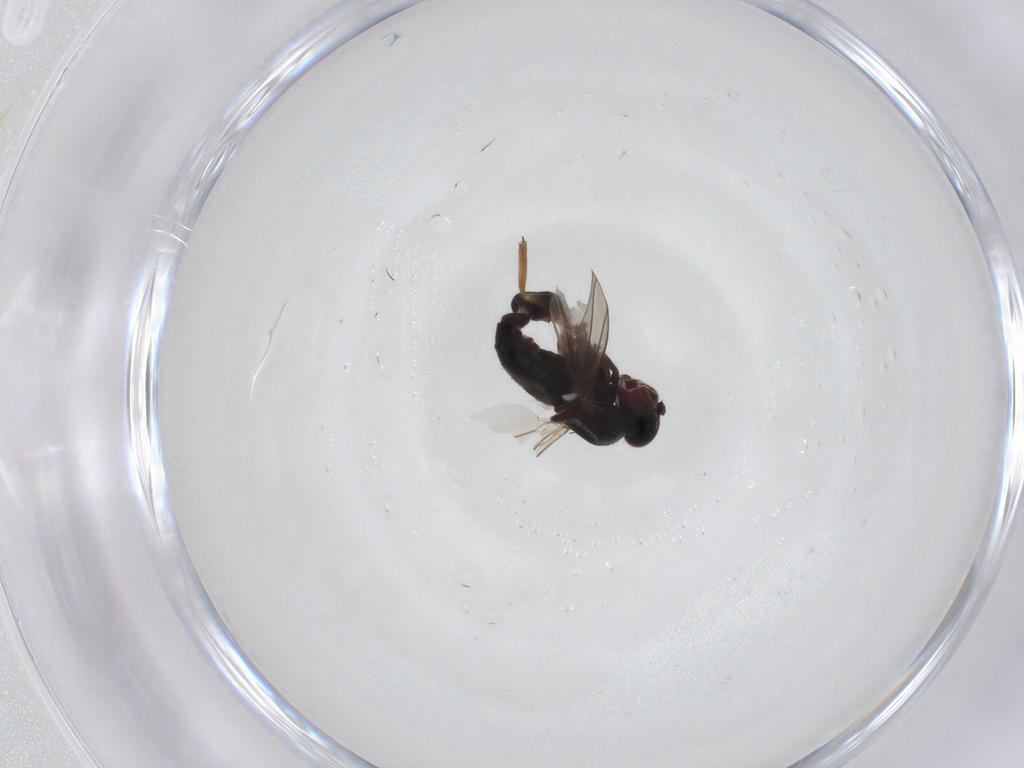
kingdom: Animalia
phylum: Arthropoda
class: Insecta
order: Diptera
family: Dolichopodidae
